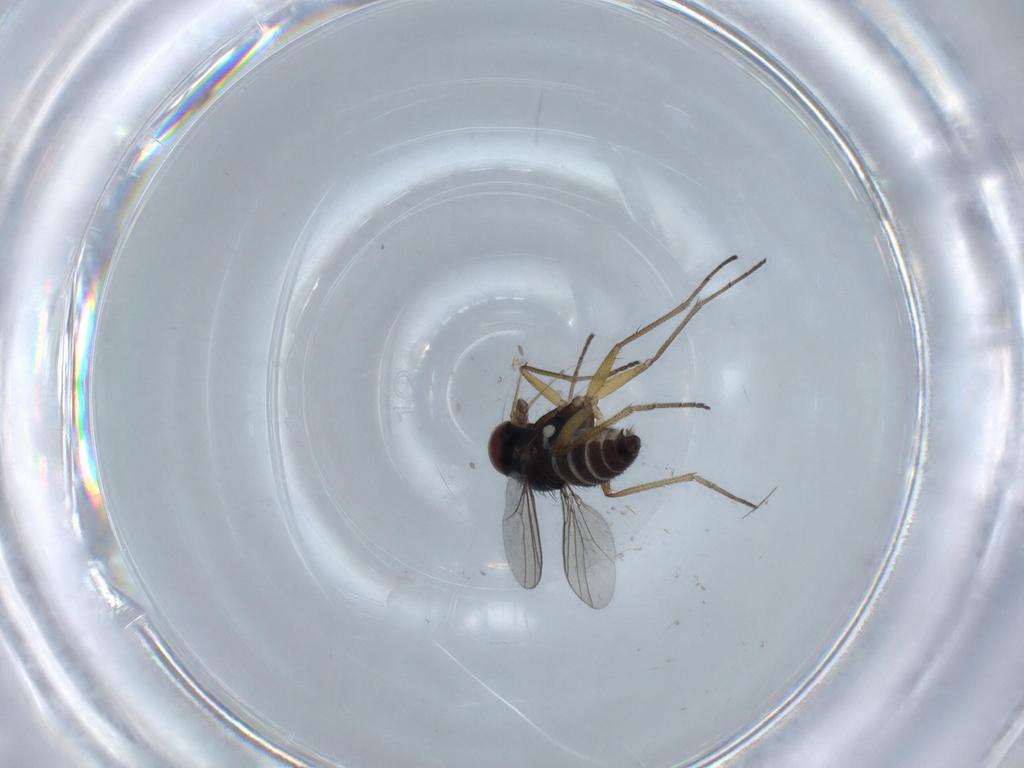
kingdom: Animalia
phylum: Arthropoda
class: Insecta
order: Diptera
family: Dolichopodidae
